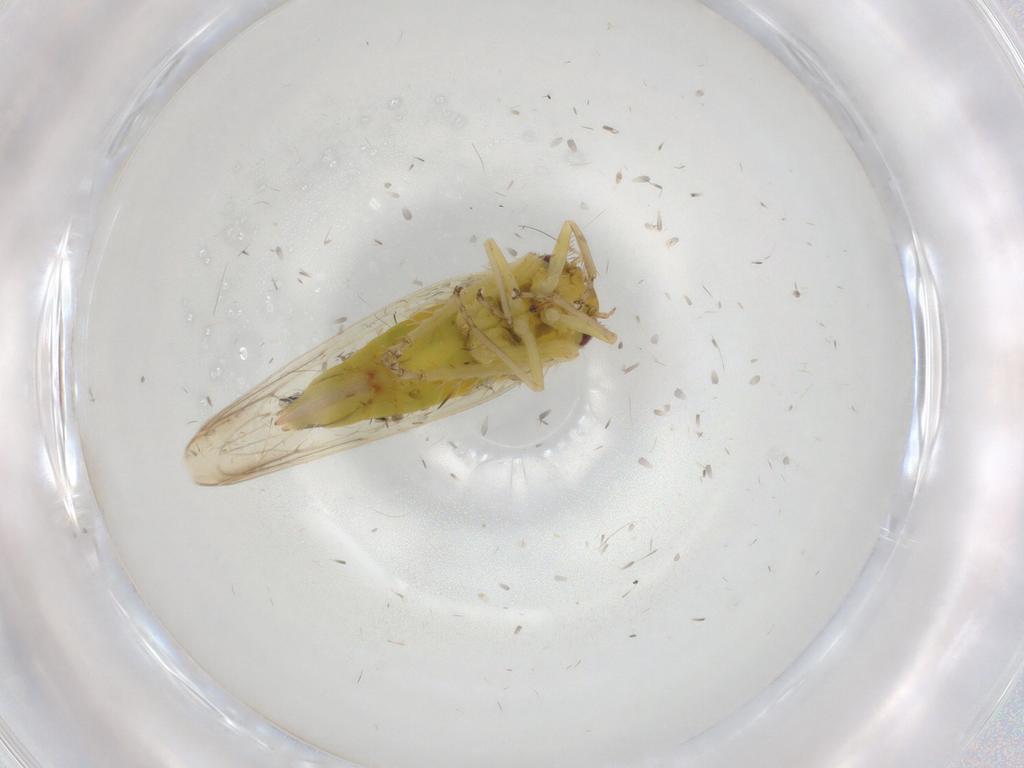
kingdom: Animalia
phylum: Arthropoda
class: Insecta
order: Hemiptera
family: Cicadellidae
